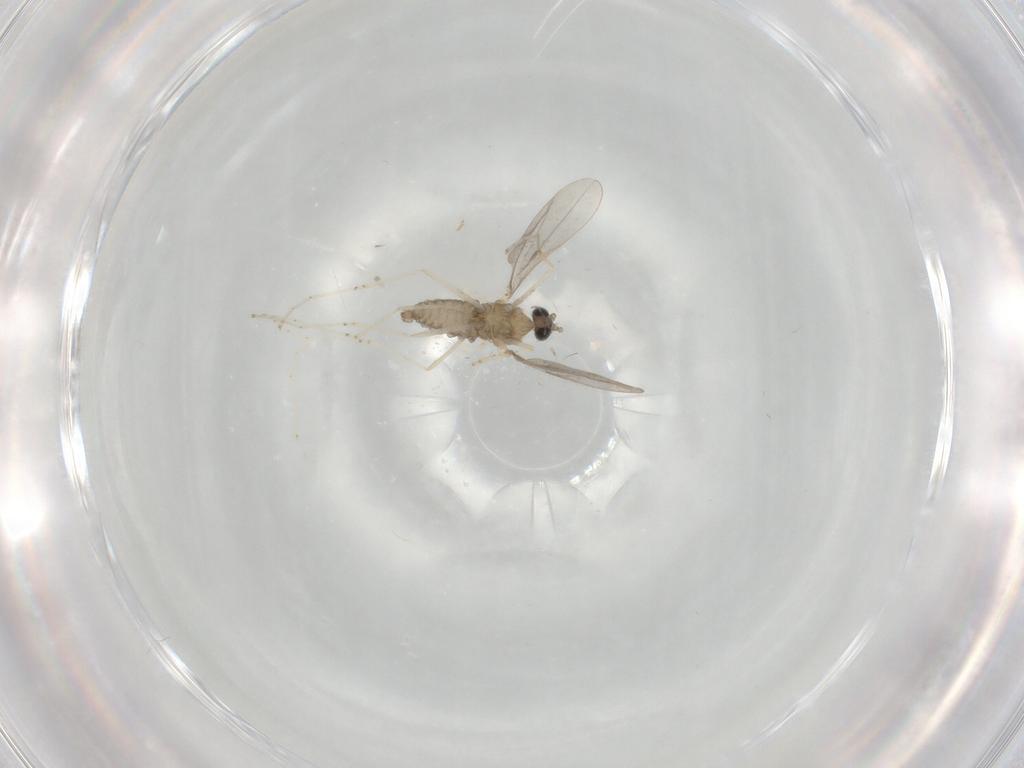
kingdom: Animalia
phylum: Arthropoda
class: Insecta
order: Diptera
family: Cecidomyiidae
